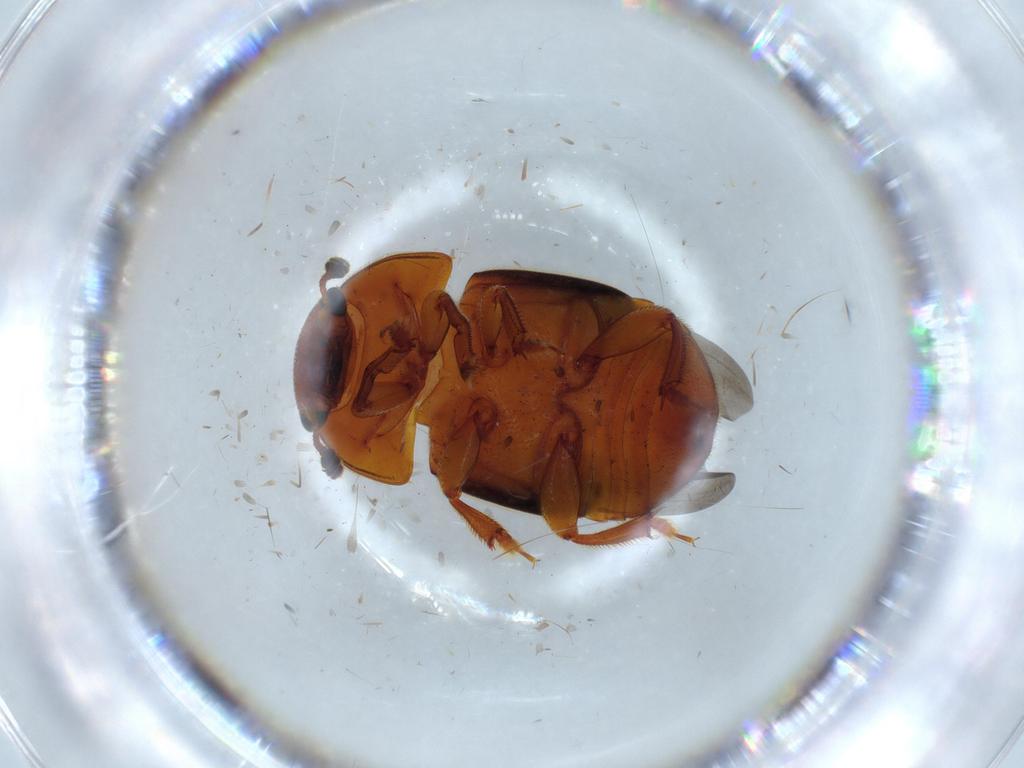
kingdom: Animalia
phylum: Arthropoda
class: Insecta
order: Coleoptera
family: Nitidulidae
